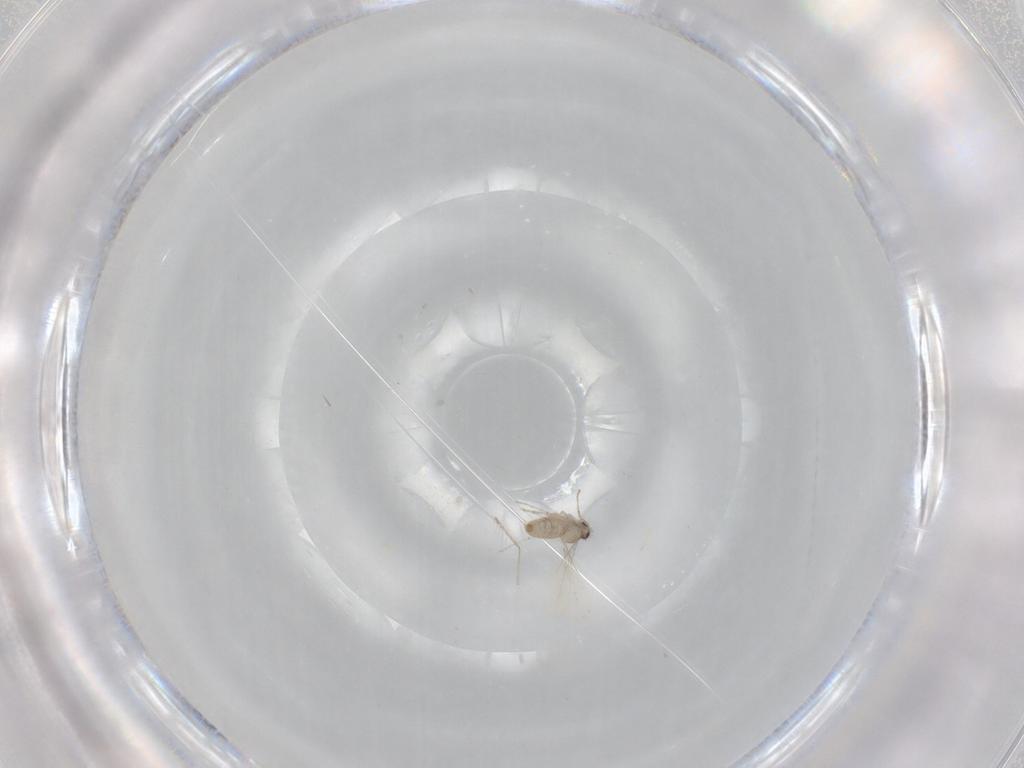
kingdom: Animalia
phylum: Arthropoda
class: Insecta
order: Diptera
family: Cecidomyiidae
